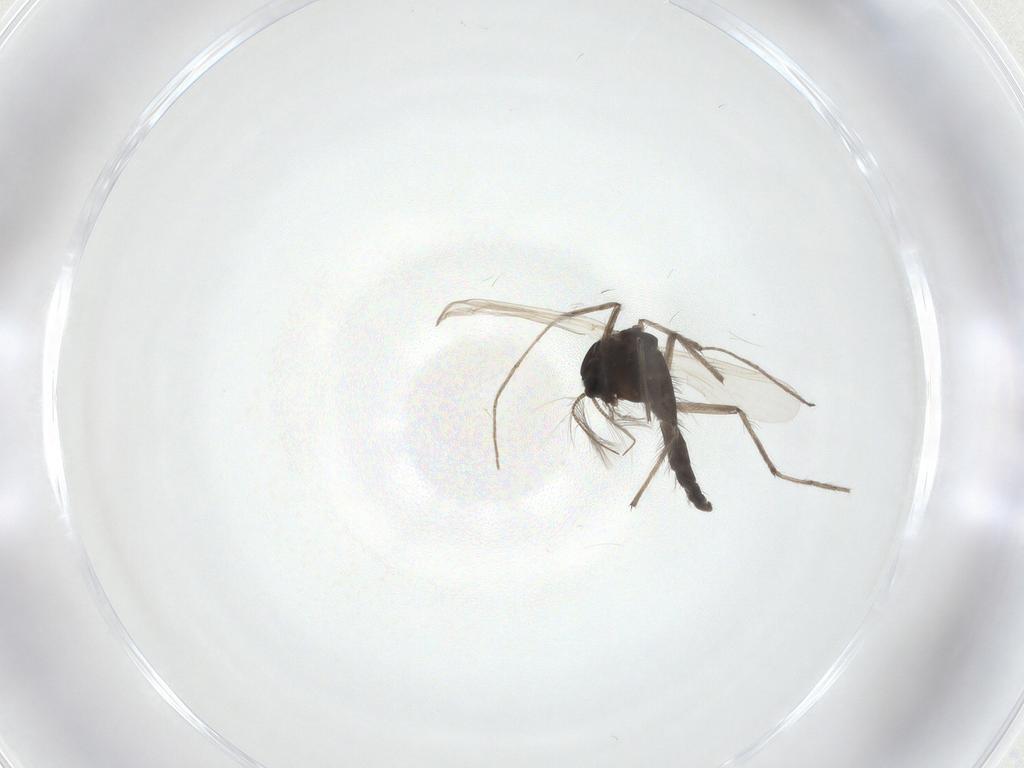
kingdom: Animalia
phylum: Arthropoda
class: Insecta
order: Diptera
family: Chironomidae
